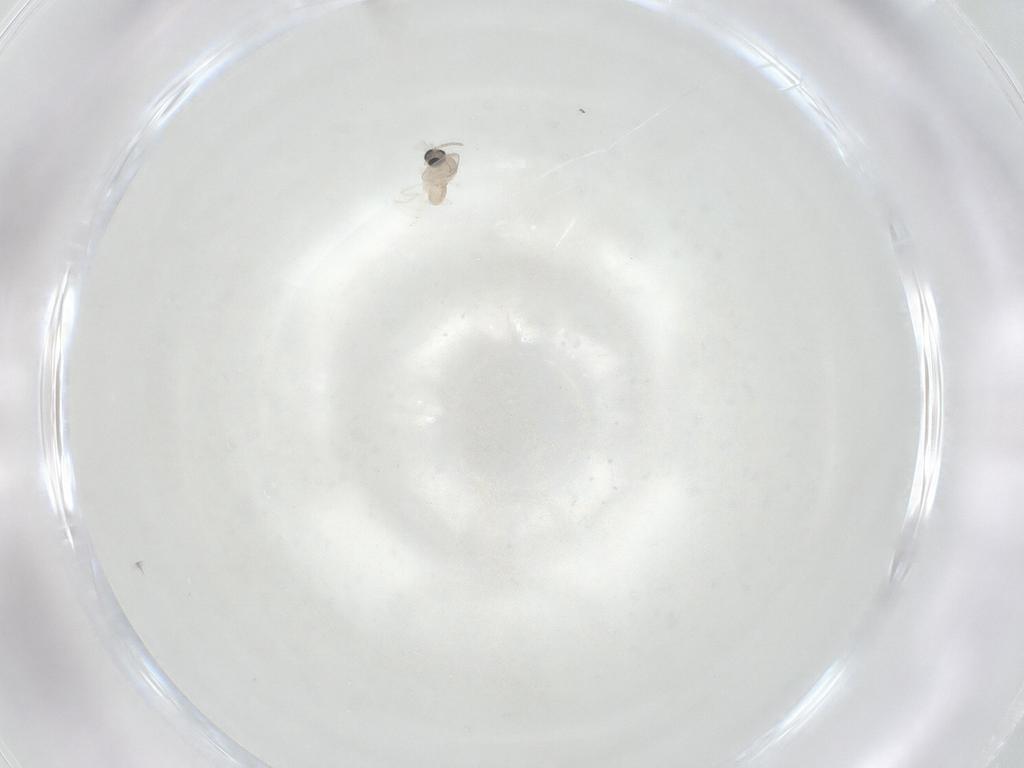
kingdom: Animalia
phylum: Arthropoda
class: Insecta
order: Diptera
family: Cecidomyiidae
